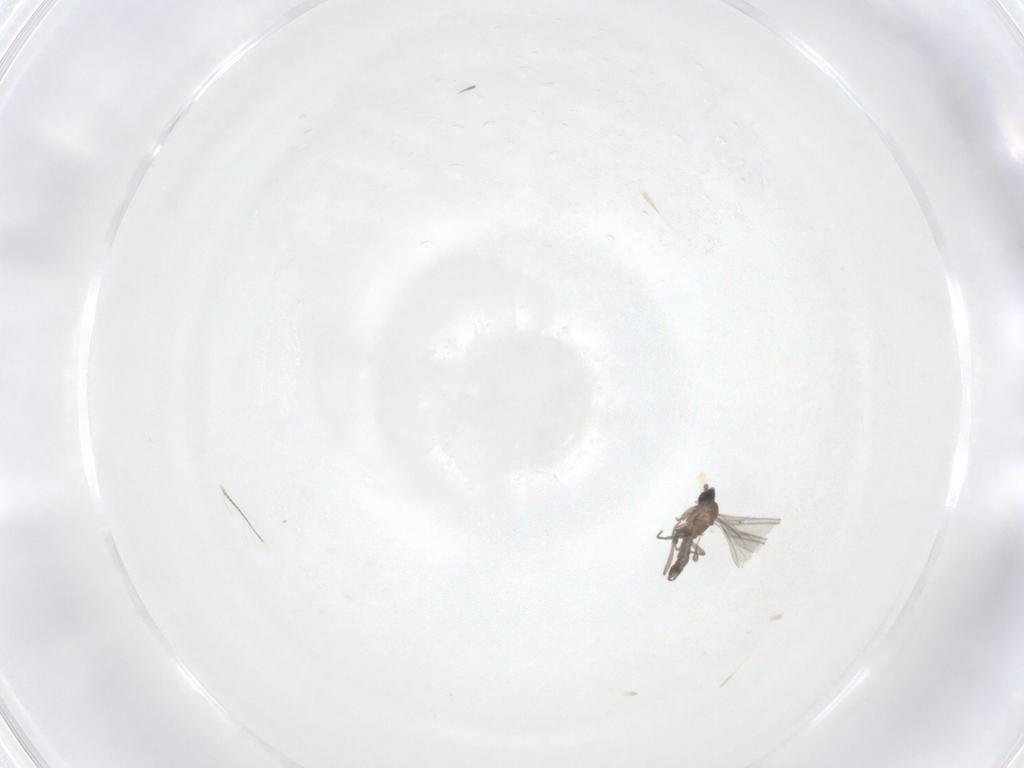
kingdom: Animalia
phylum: Arthropoda
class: Insecta
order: Diptera
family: Sciaridae
